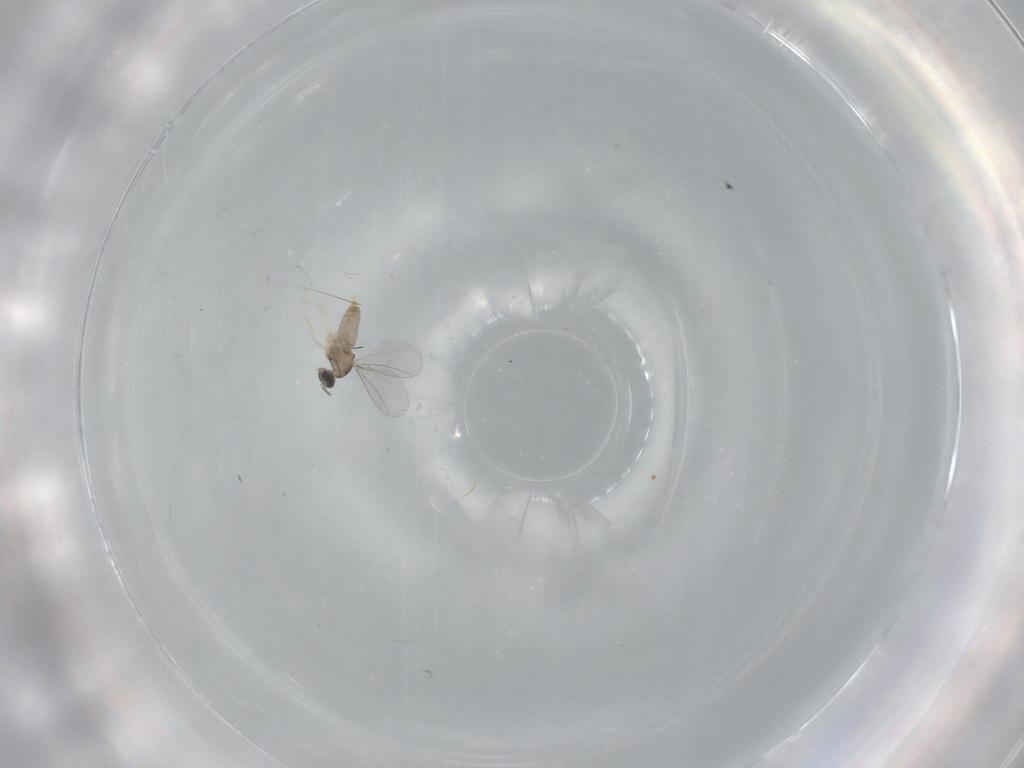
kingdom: Animalia
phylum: Arthropoda
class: Insecta
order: Diptera
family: Cecidomyiidae
